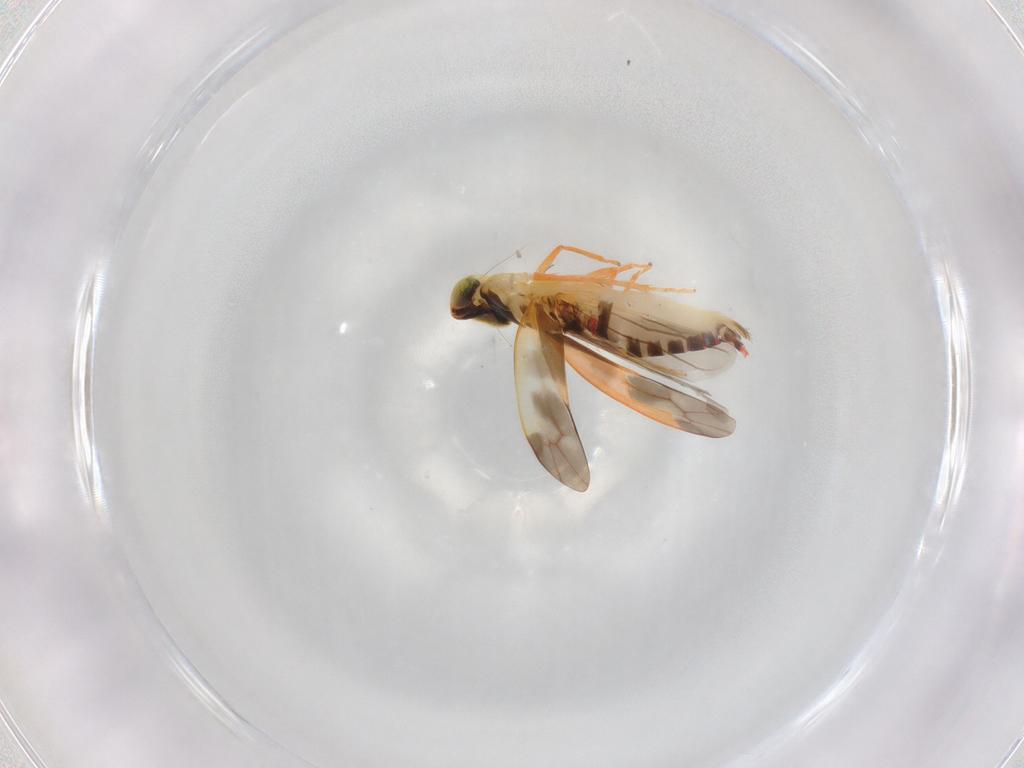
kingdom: Animalia
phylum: Arthropoda
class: Insecta
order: Hemiptera
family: Cicadellidae
